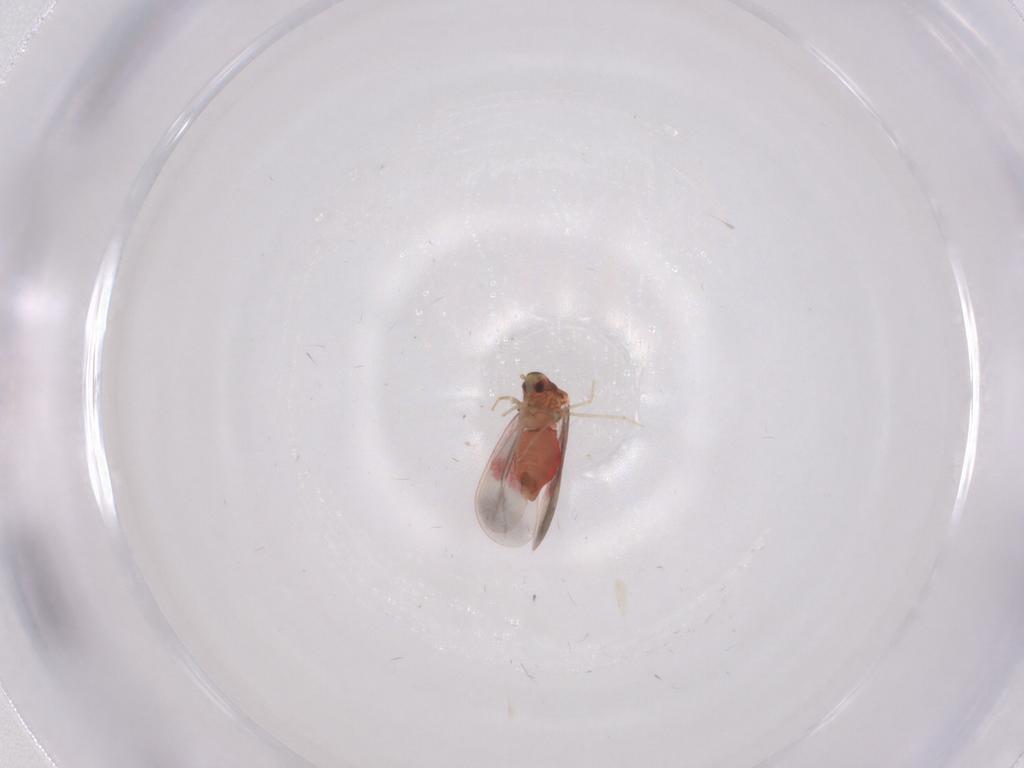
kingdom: Animalia
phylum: Arthropoda
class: Insecta
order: Hemiptera
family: Aleyrodidae
